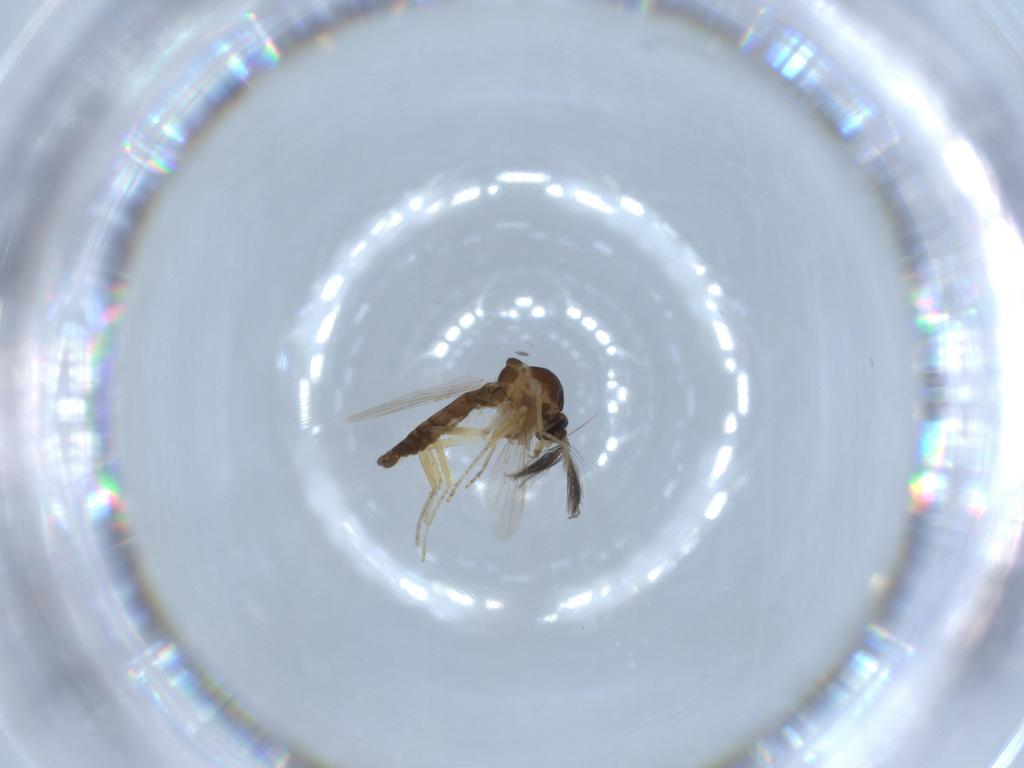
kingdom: Animalia
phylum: Arthropoda
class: Insecta
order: Diptera
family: Ceratopogonidae
